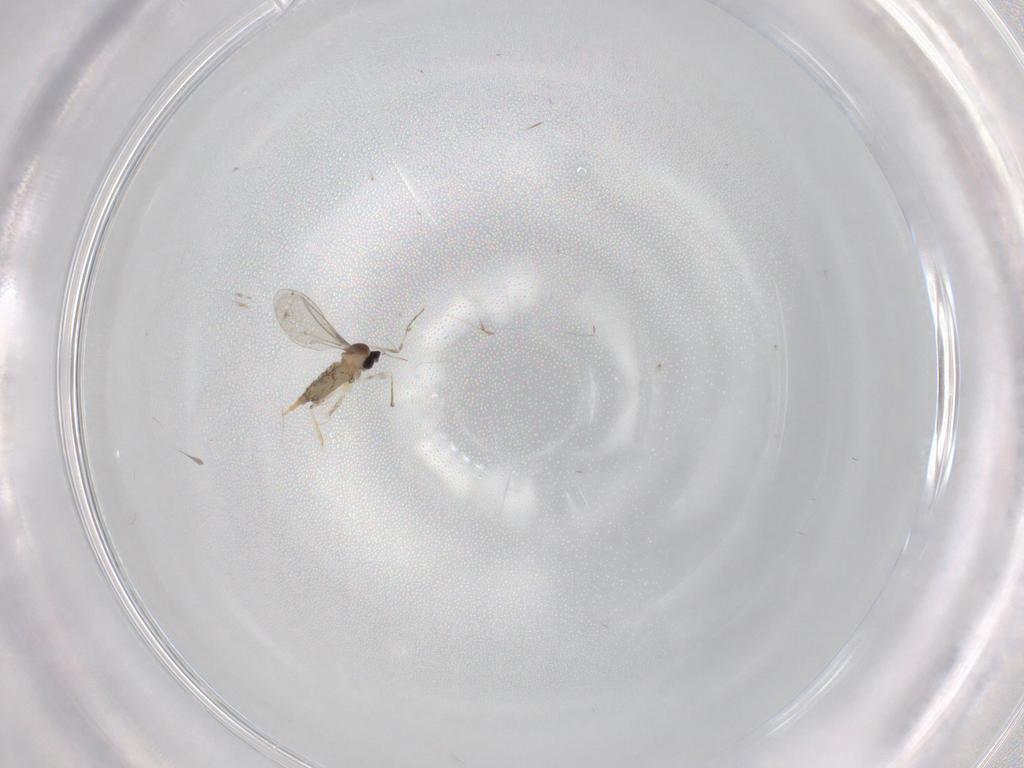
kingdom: Animalia
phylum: Arthropoda
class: Insecta
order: Diptera
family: Cecidomyiidae
